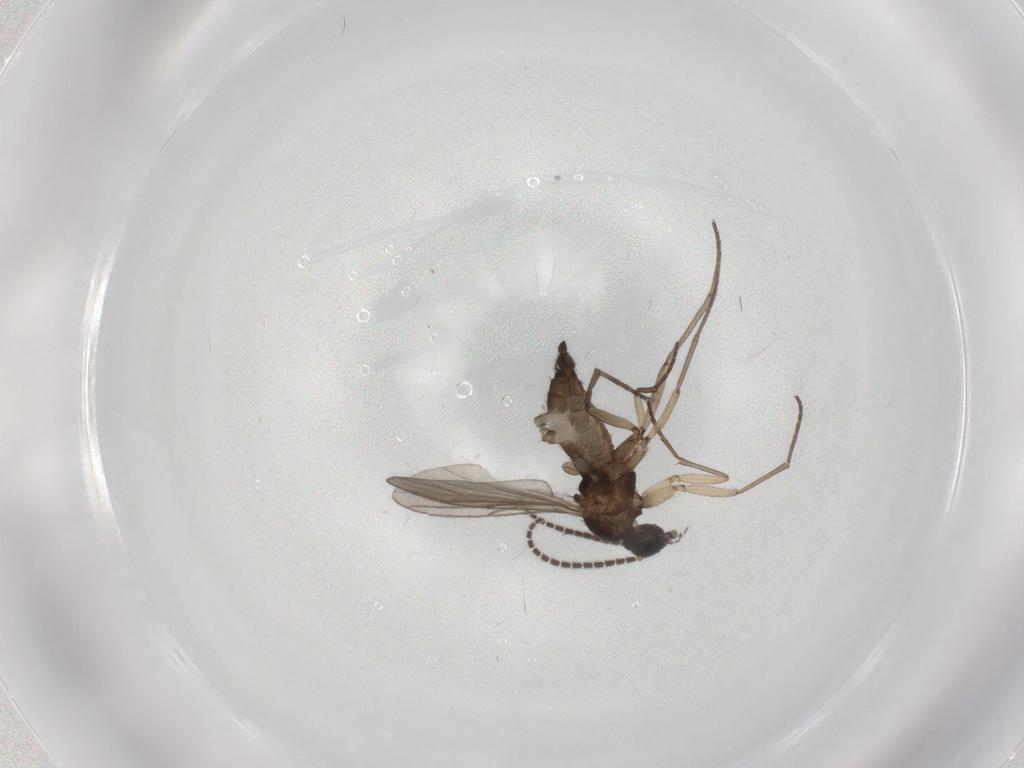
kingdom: Animalia
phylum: Arthropoda
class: Insecta
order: Diptera
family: Sciaridae
